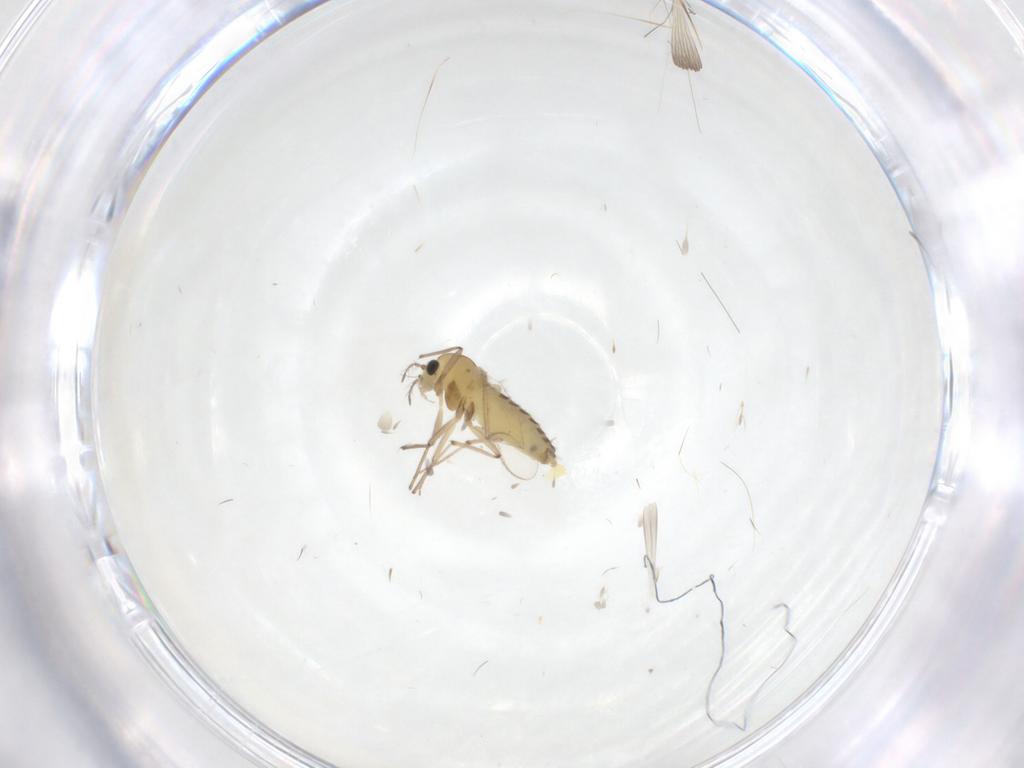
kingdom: Animalia
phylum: Arthropoda
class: Insecta
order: Diptera
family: Chironomidae
